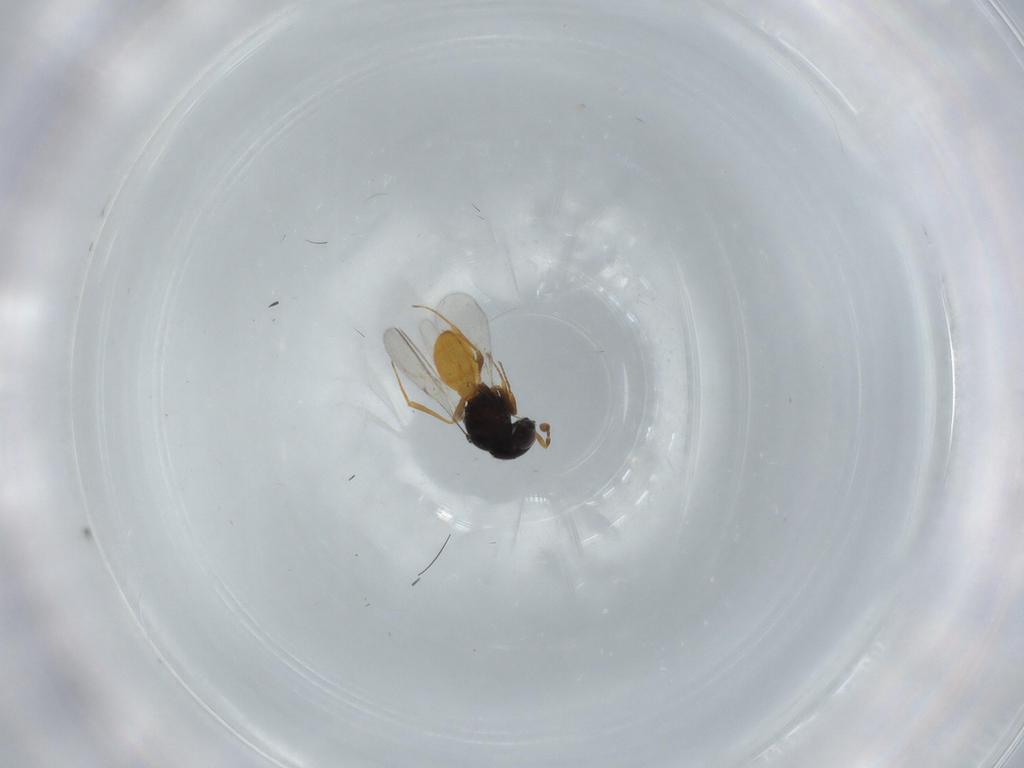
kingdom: Animalia
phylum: Arthropoda
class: Insecta
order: Hymenoptera
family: Scelionidae
